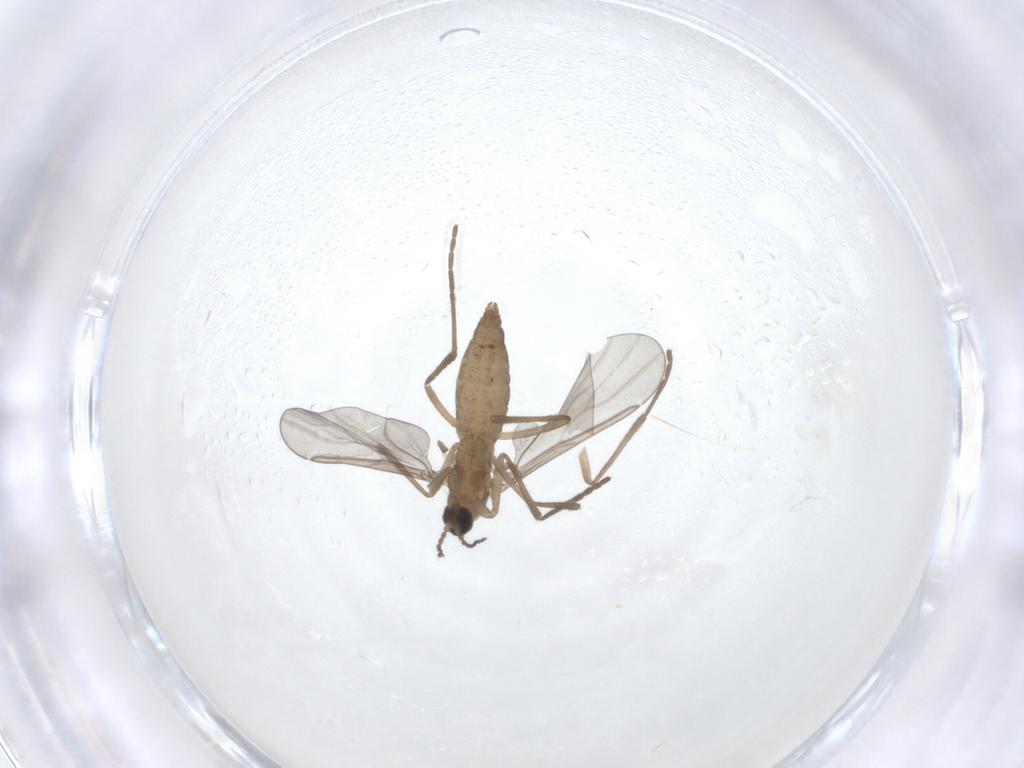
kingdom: Animalia
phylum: Arthropoda
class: Insecta
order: Diptera
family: Cecidomyiidae
